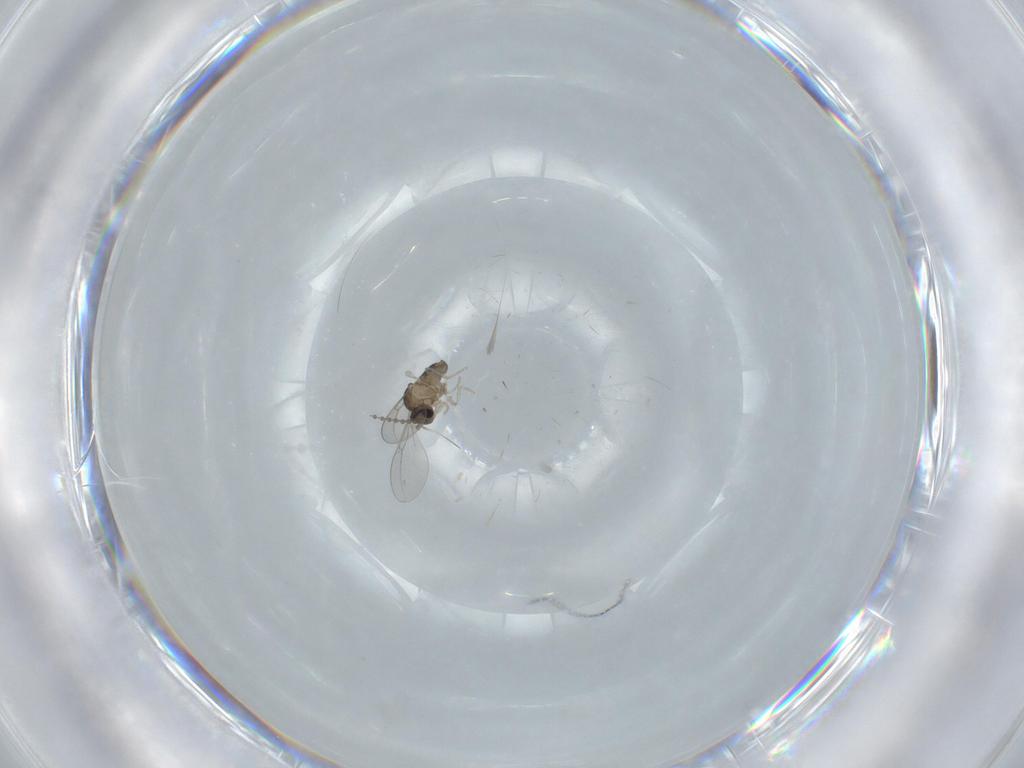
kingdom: Animalia
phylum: Arthropoda
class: Insecta
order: Diptera
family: Cecidomyiidae
